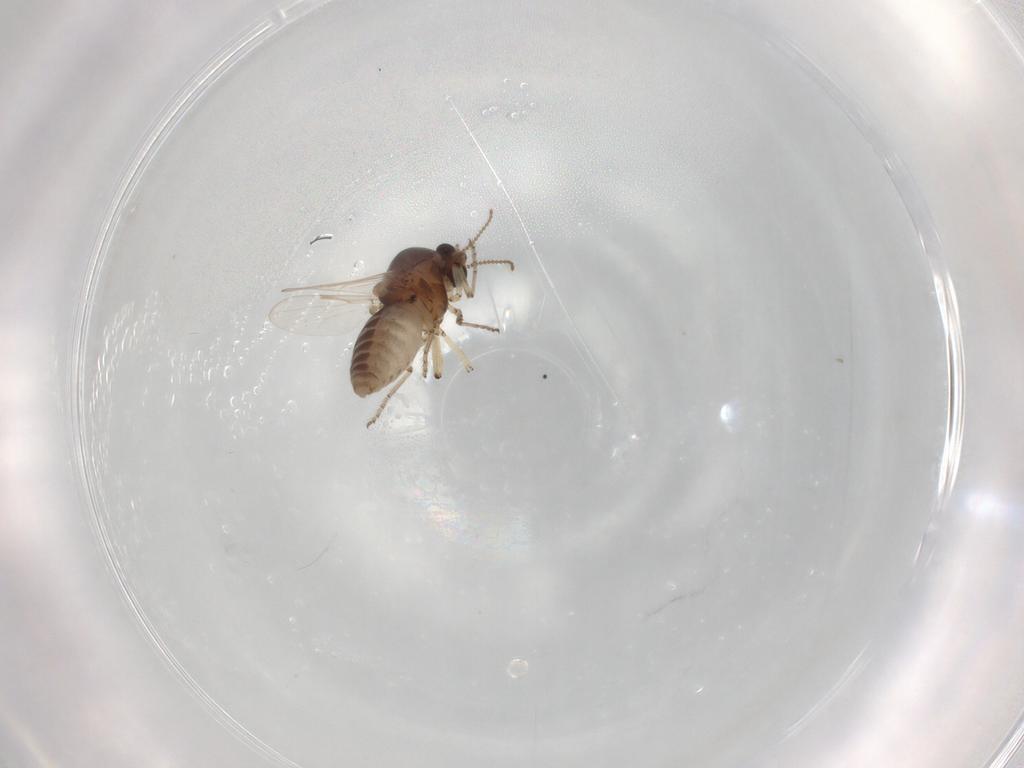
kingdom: Animalia
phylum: Arthropoda
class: Insecta
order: Diptera
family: Ceratopogonidae
